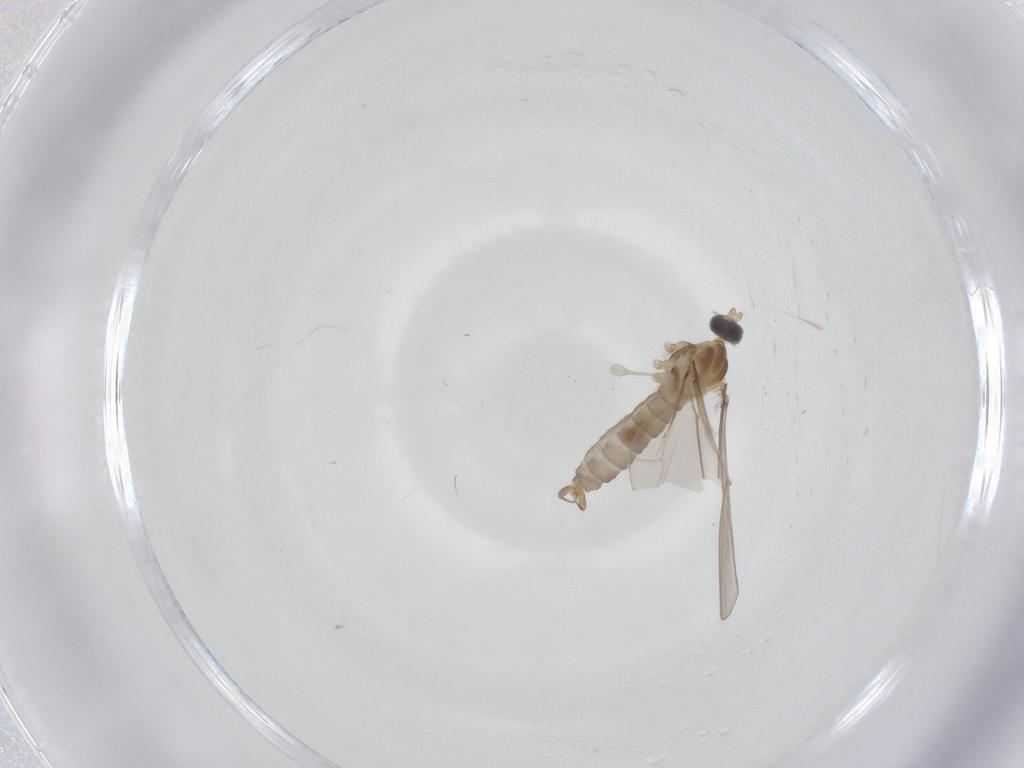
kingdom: Animalia
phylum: Arthropoda
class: Insecta
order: Diptera
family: Cecidomyiidae
